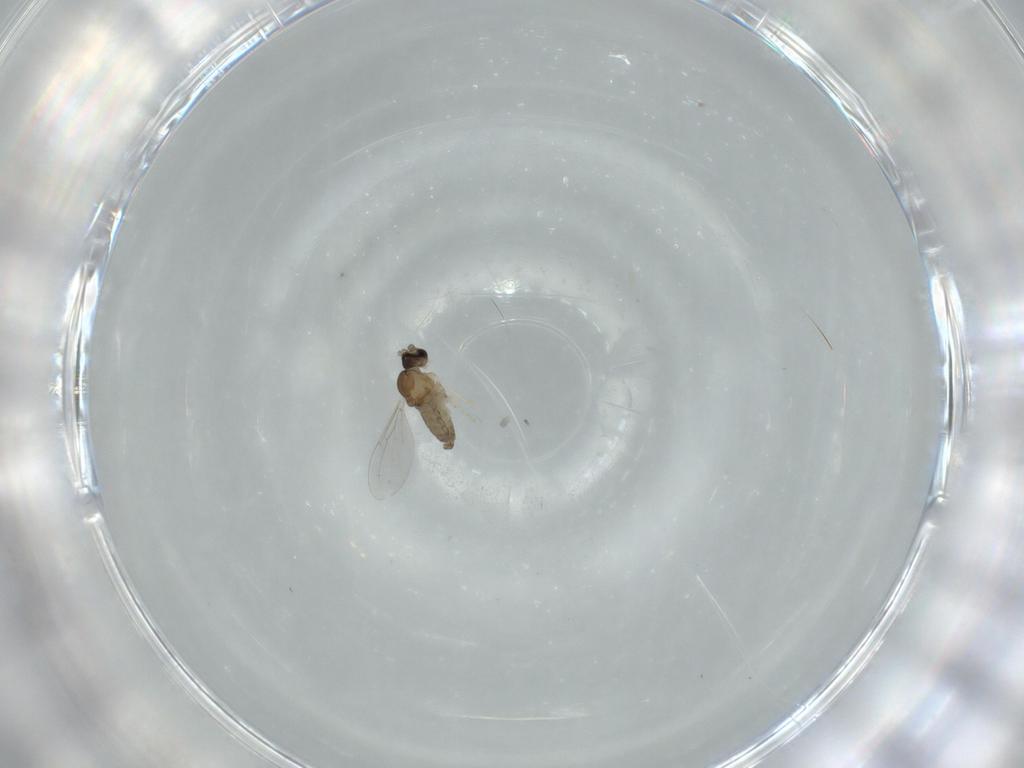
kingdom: Animalia
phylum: Arthropoda
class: Insecta
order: Diptera
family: Cecidomyiidae
